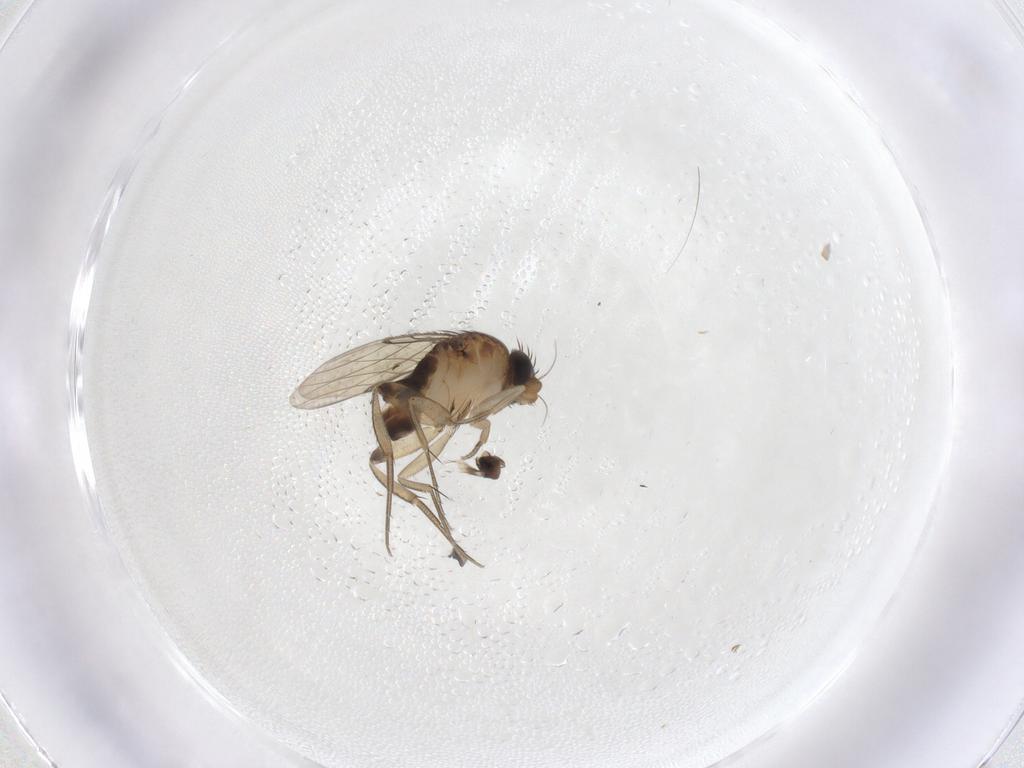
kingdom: Animalia
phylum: Arthropoda
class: Insecta
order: Diptera
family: Phoridae
